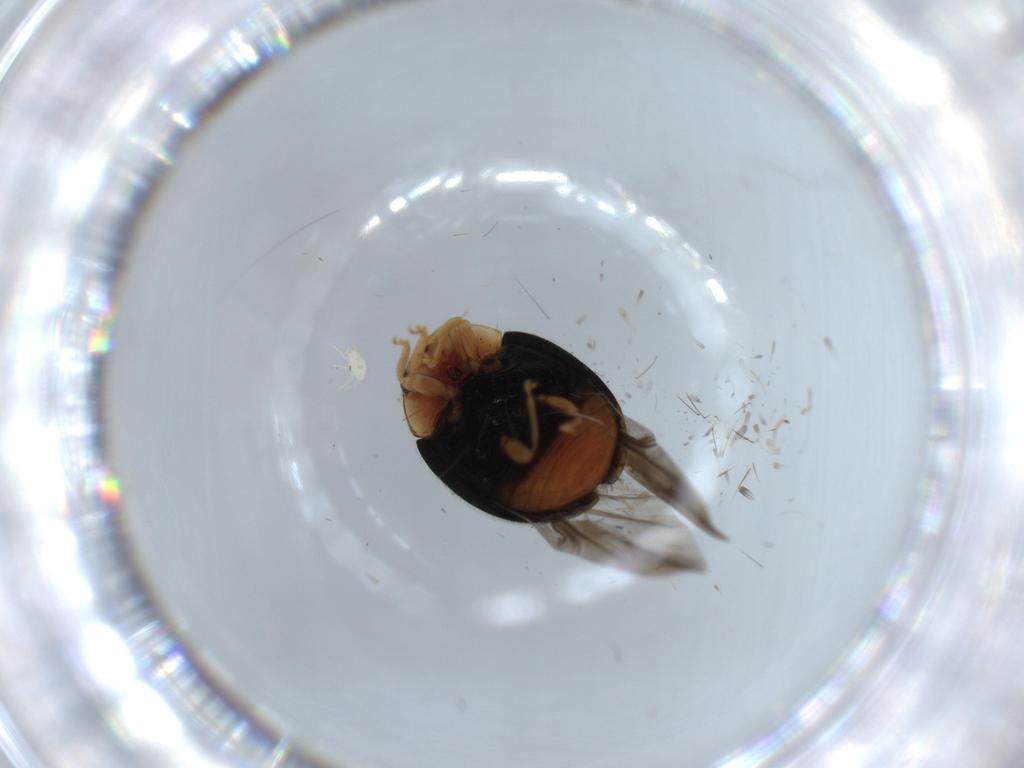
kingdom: Animalia
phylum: Arthropoda
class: Insecta
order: Coleoptera
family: Coccinellidae
